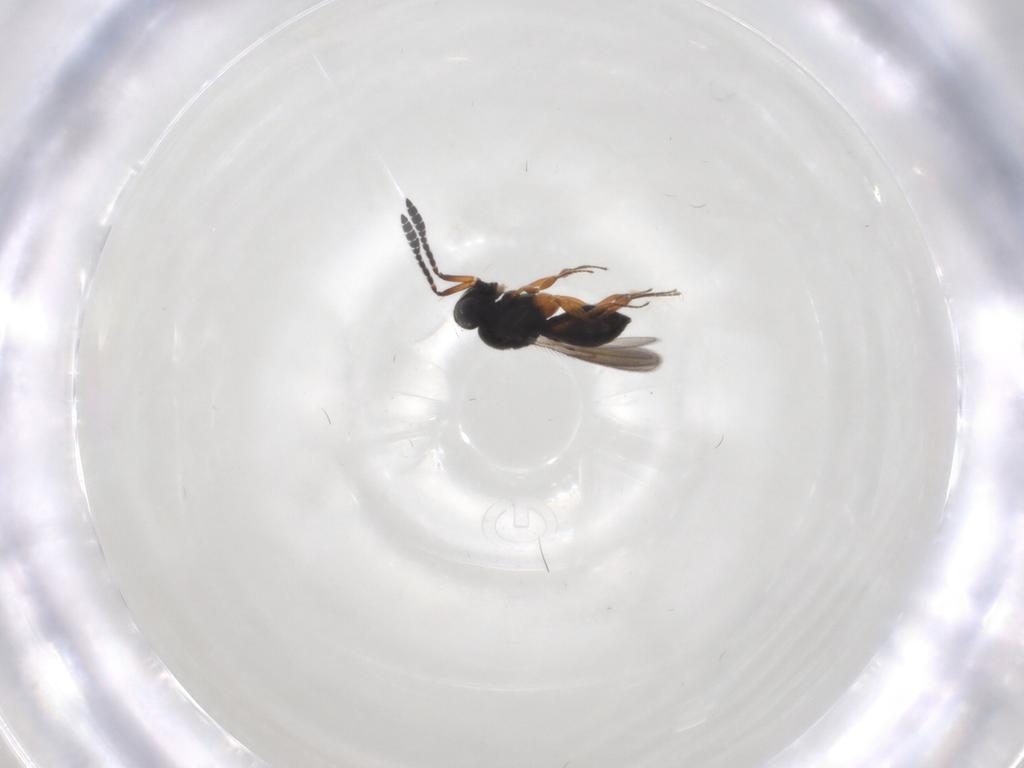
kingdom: Animalia
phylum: Arthropoda
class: Insecta
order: Hymenoptera
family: Scelionidae
